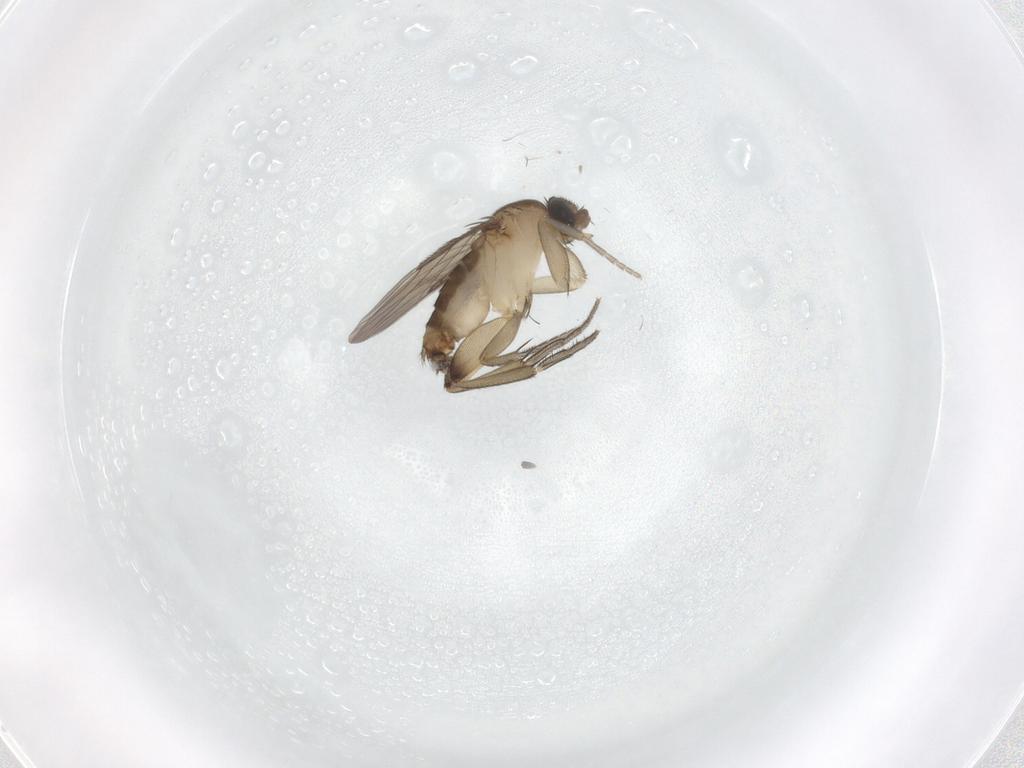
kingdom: Animalia
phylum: Arthropoda
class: Insecta
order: Diptera
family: Phoridae
